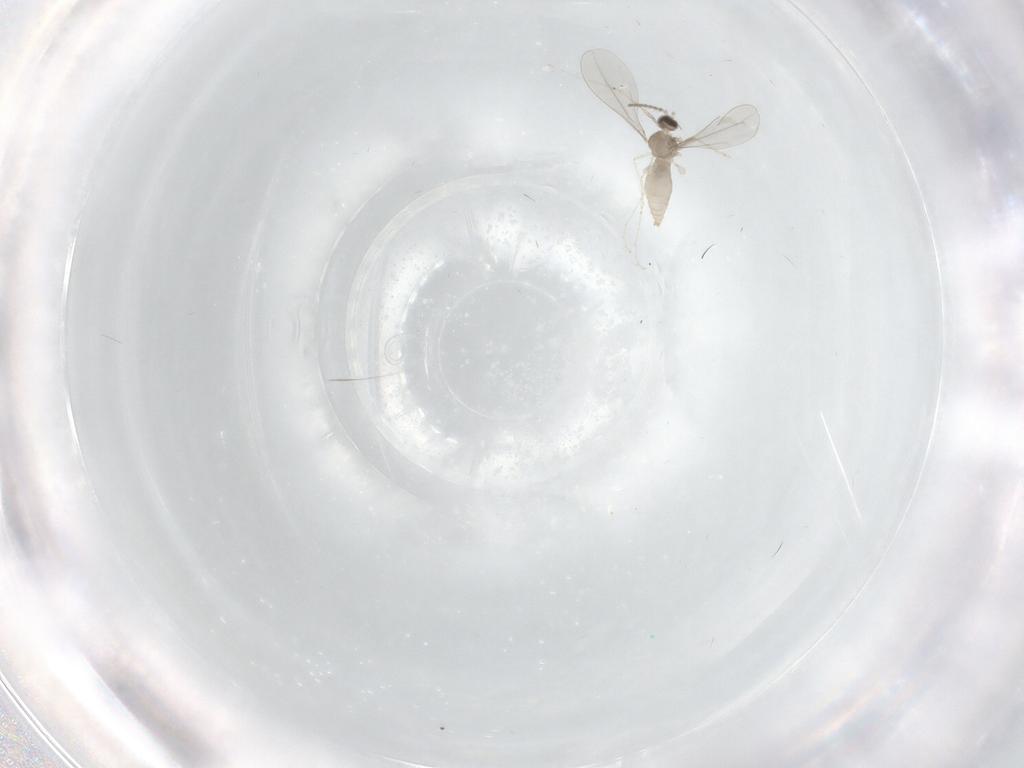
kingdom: Animalia
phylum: Arthropoda
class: Insecta
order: Diptera
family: Cecidomyiidae
